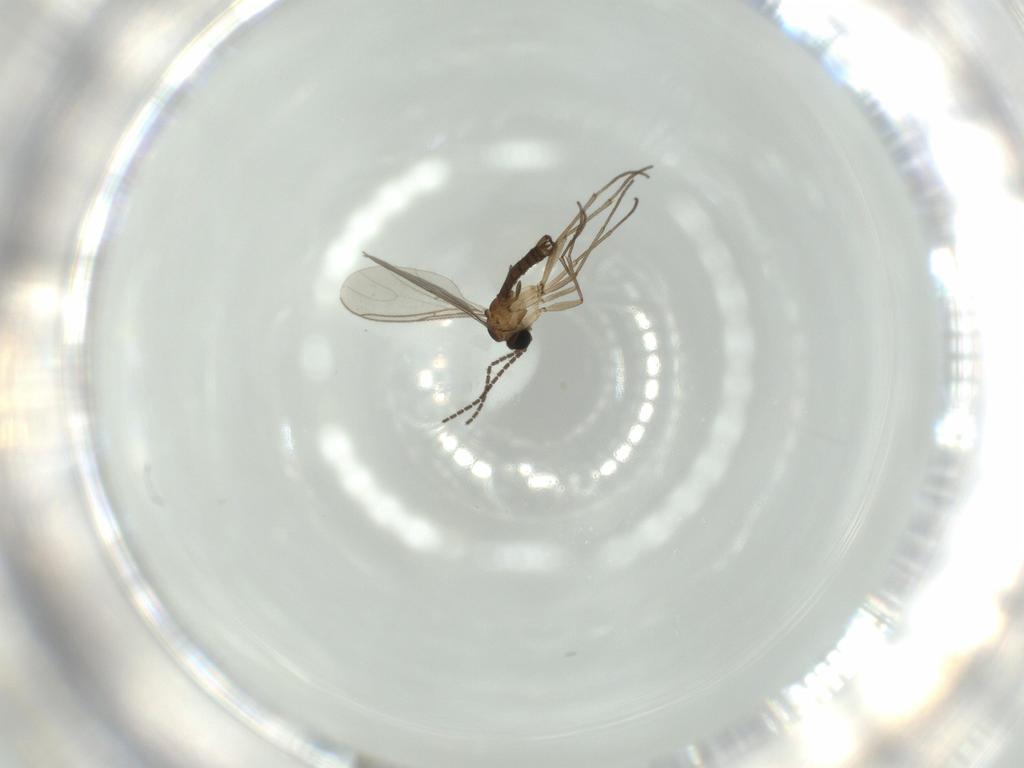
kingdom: Animalia
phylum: Arthropoda
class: Insecta
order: Diptera
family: Sciaridae
